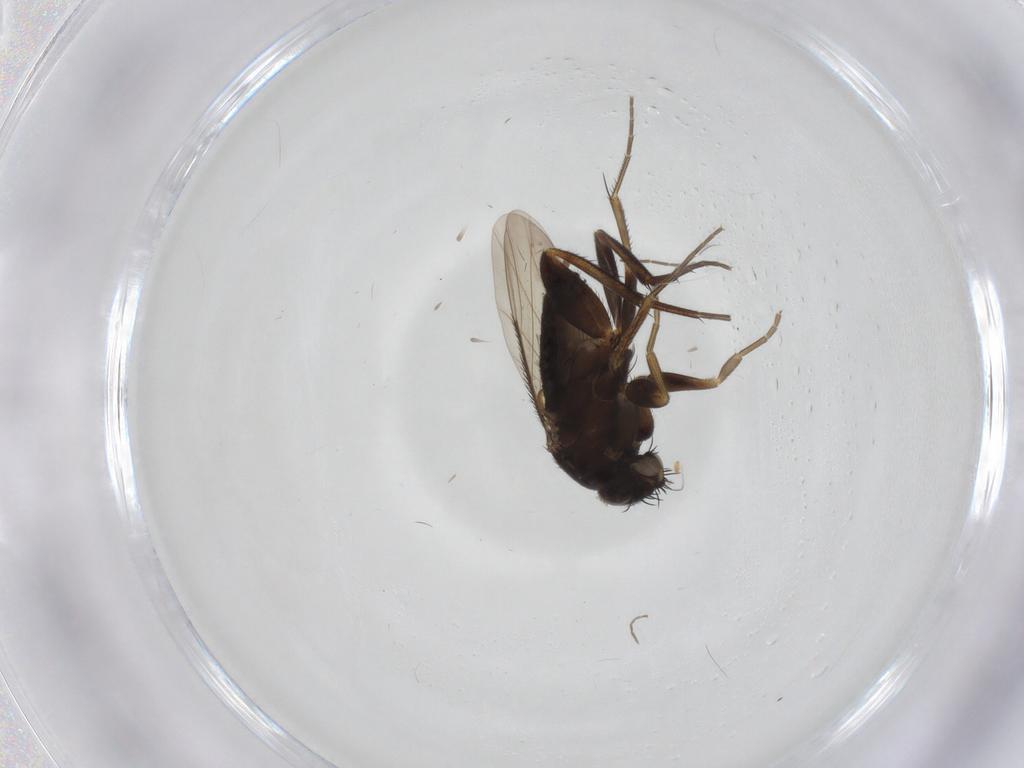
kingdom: Animalia
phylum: Arthropoda
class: Insecta
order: Diptera
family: Phoridae
